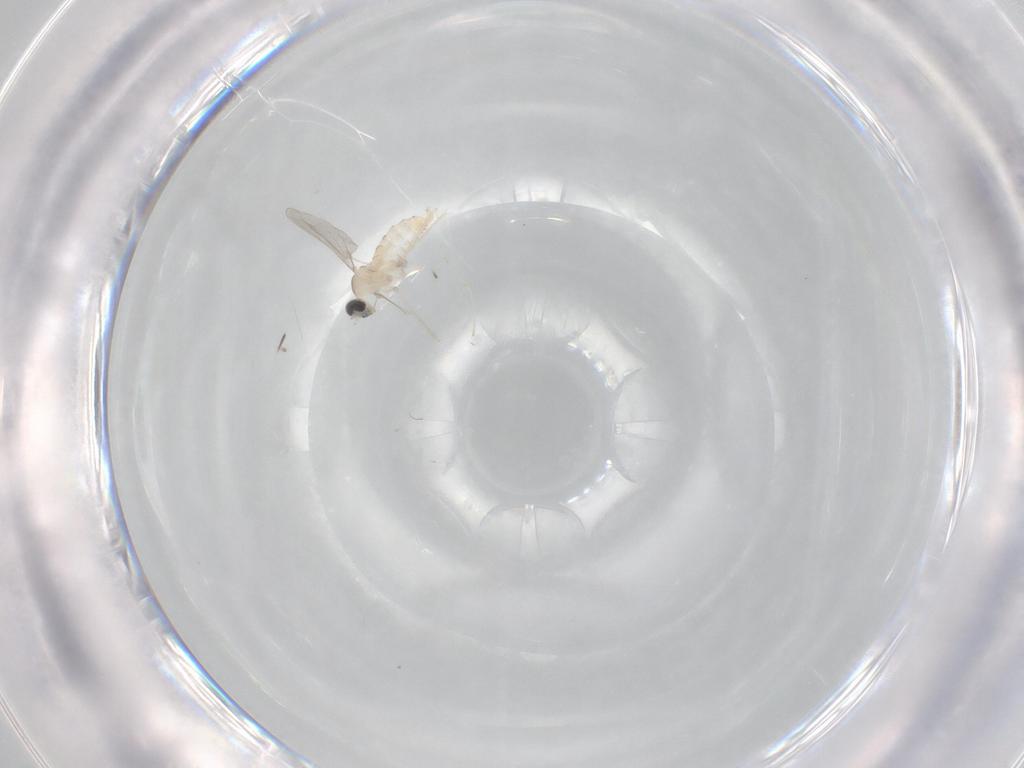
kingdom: Animalia
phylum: Arthropoda
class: Insecta
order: Diptera
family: Cecidomyiidae
